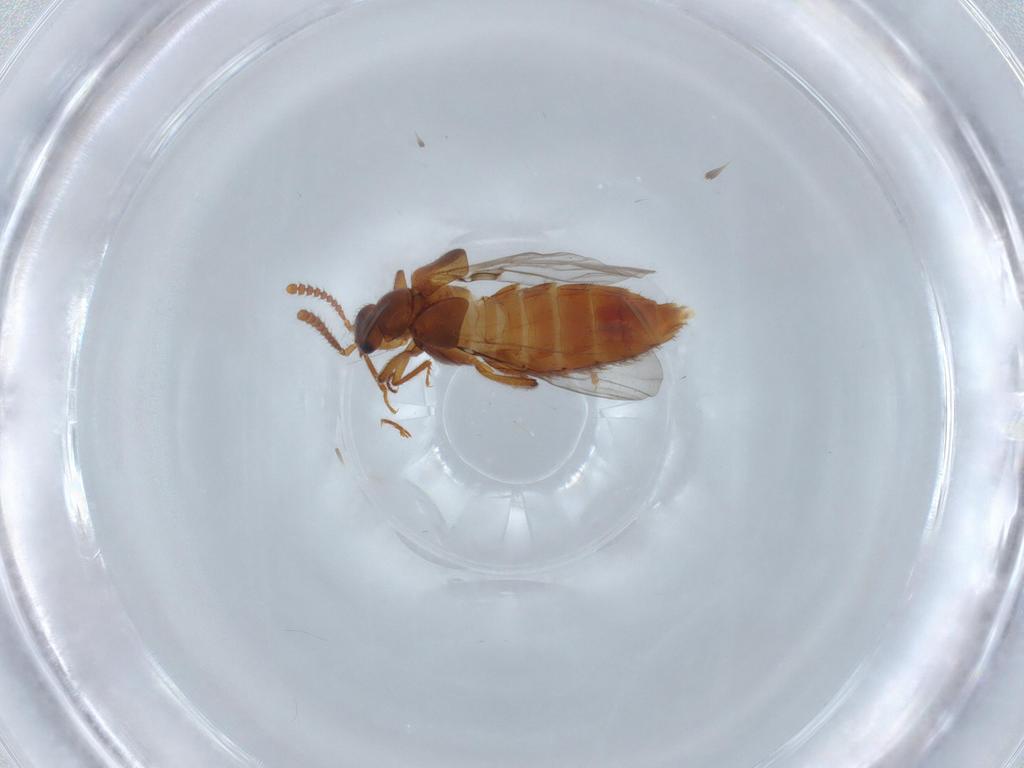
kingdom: Animalia
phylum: Arthropoda
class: Insecta
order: Coleoptera
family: Staphylinidae
